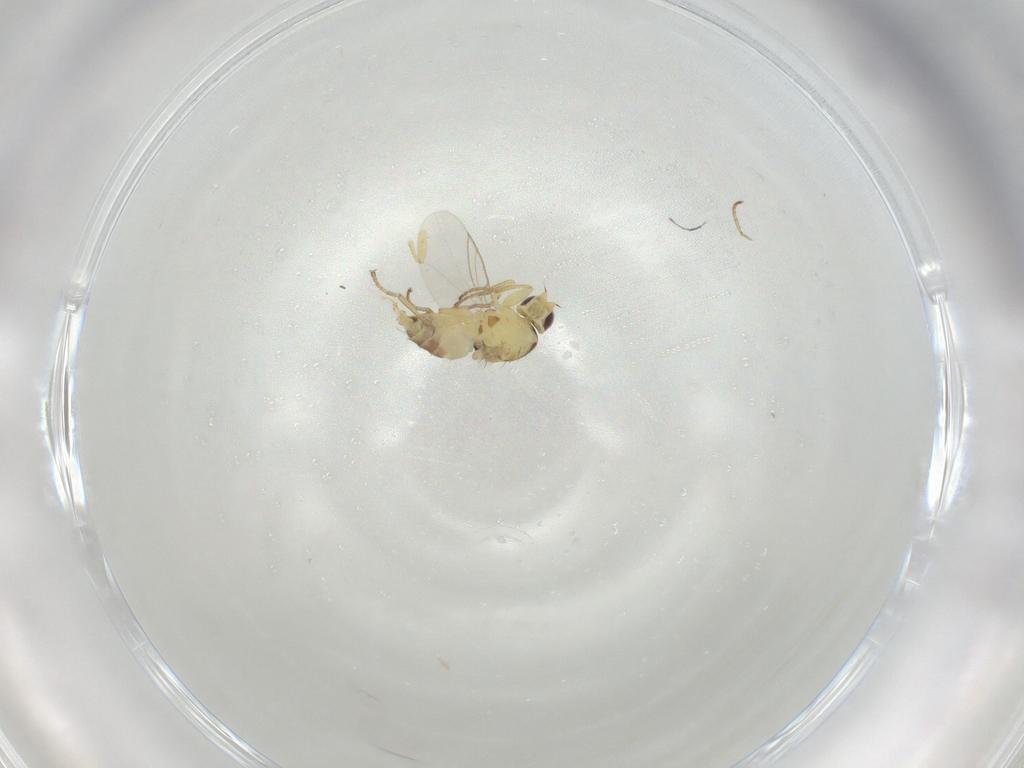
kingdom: Animalia
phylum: Arthropoda
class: Insecta
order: Diptera
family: Agromyzidae
